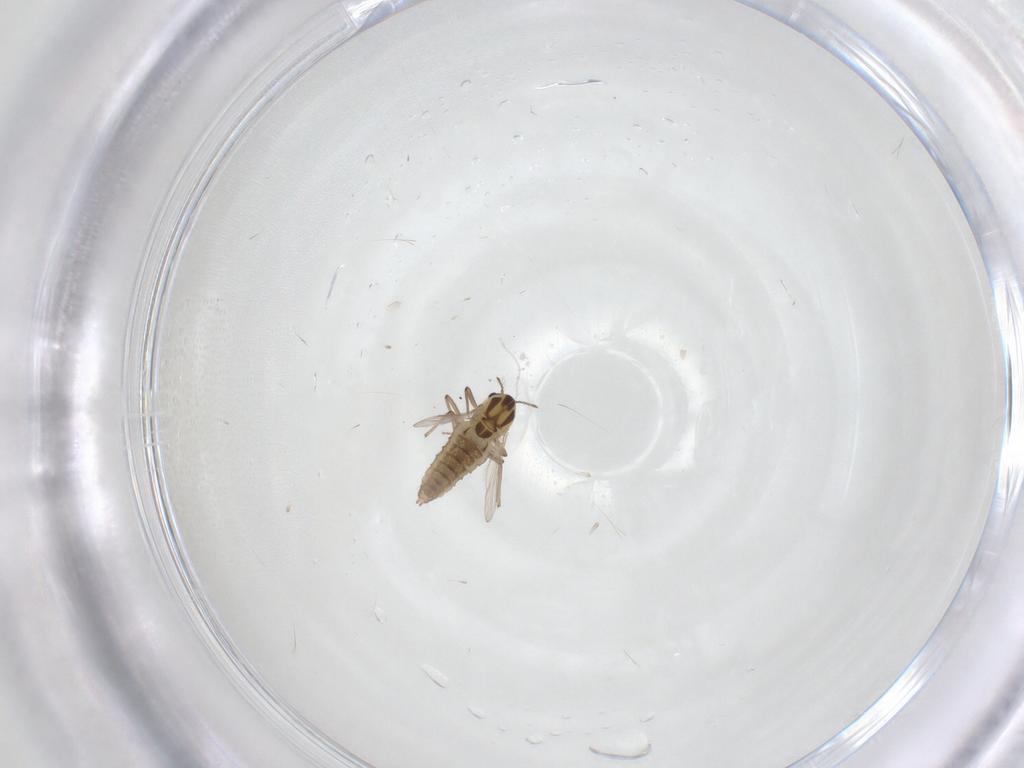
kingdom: Animalia
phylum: Arthropoda
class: Insecta
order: Diptera
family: Chironomidae
